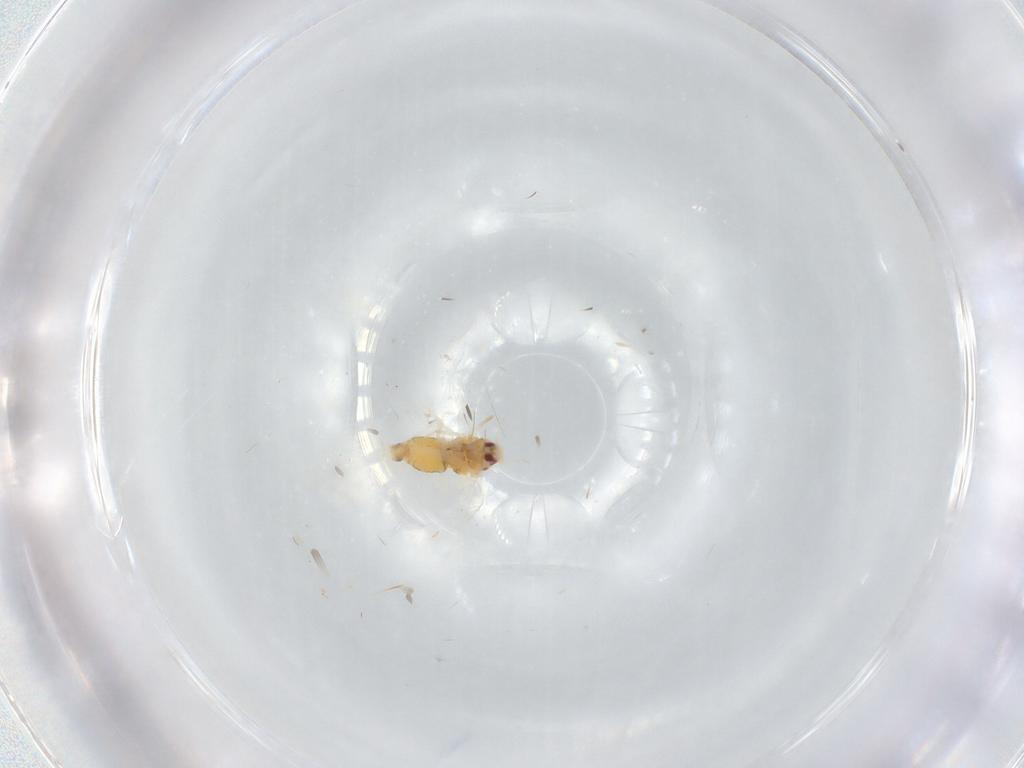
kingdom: Animalia
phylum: Arthropoda
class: Insecta
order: Hemiptera
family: Aleyrodidae
